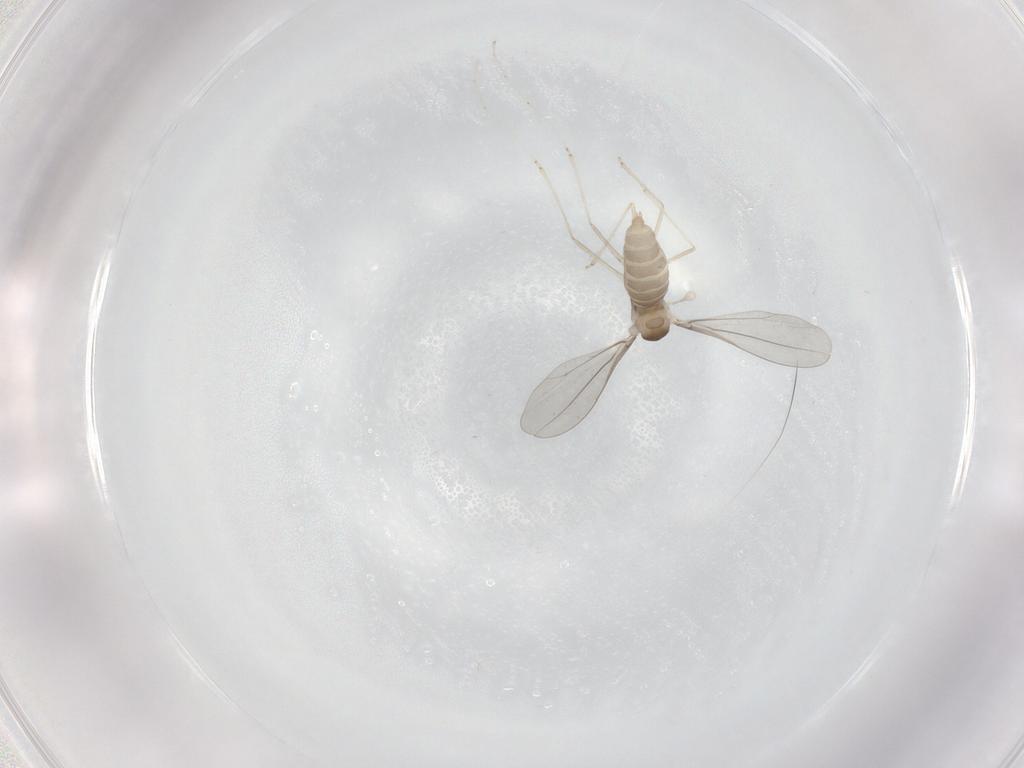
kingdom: Animalia
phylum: Arthropoda
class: Insecta
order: Diptera
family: Cecidomyiidae
